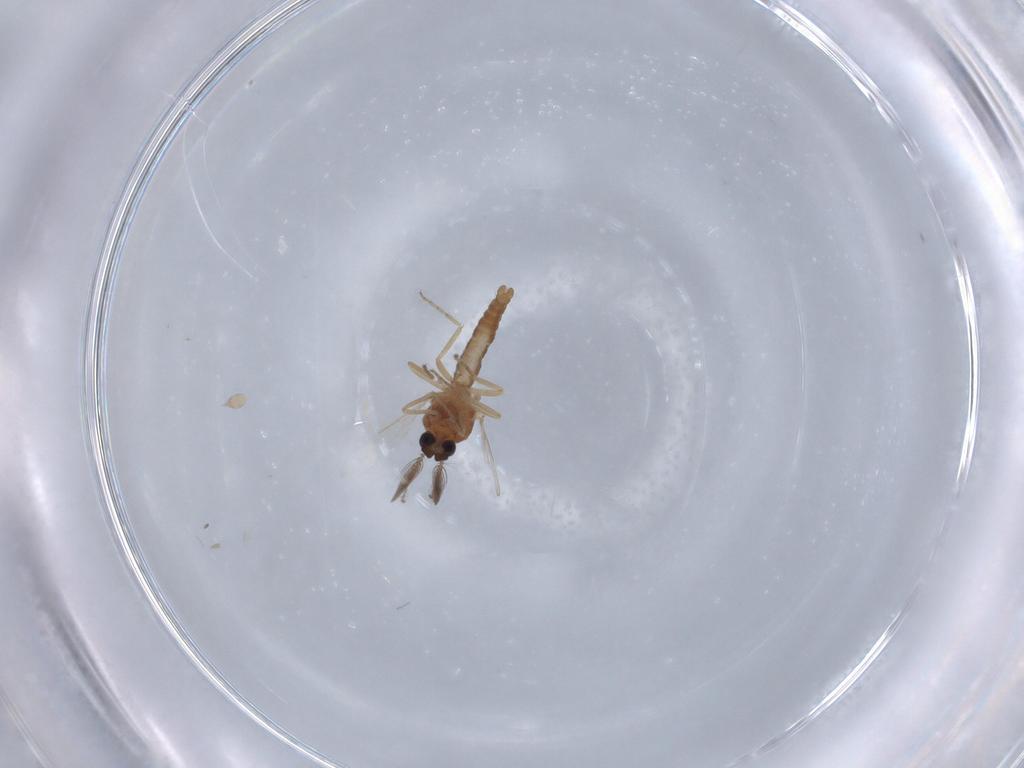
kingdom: Animalia
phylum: Arthropoda
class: Insecta
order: Diptera
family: Ceratopogonidae
